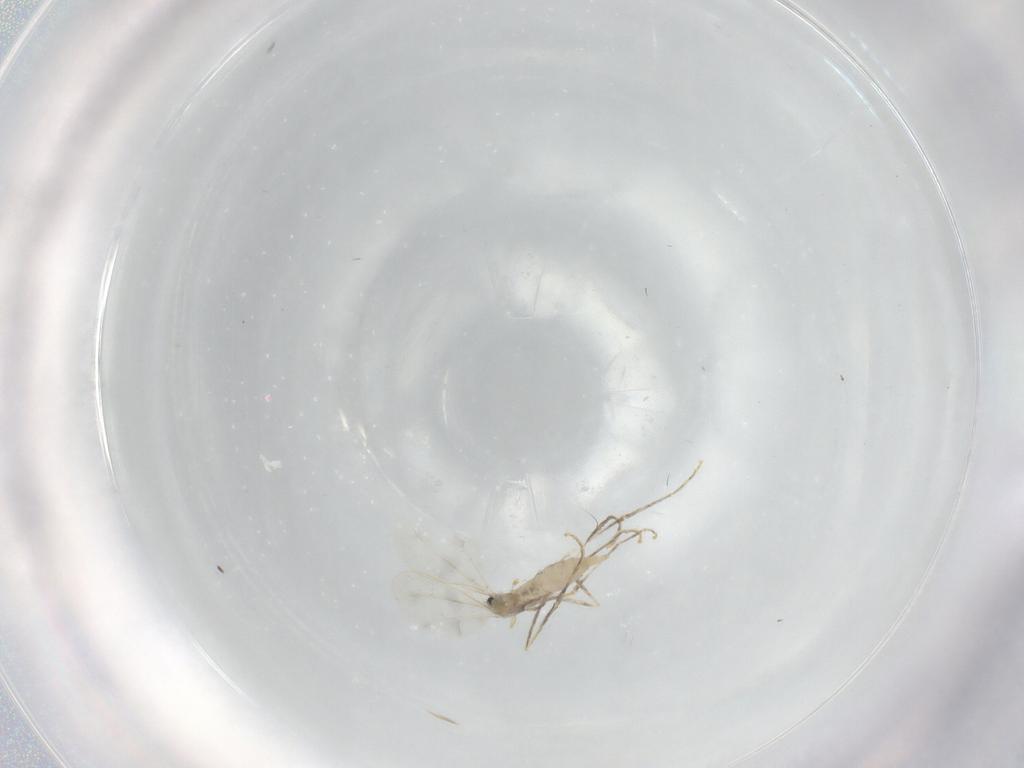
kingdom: Animalia
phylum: Arthropoda
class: Insecta
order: Diptera
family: Cecidomyiidae
